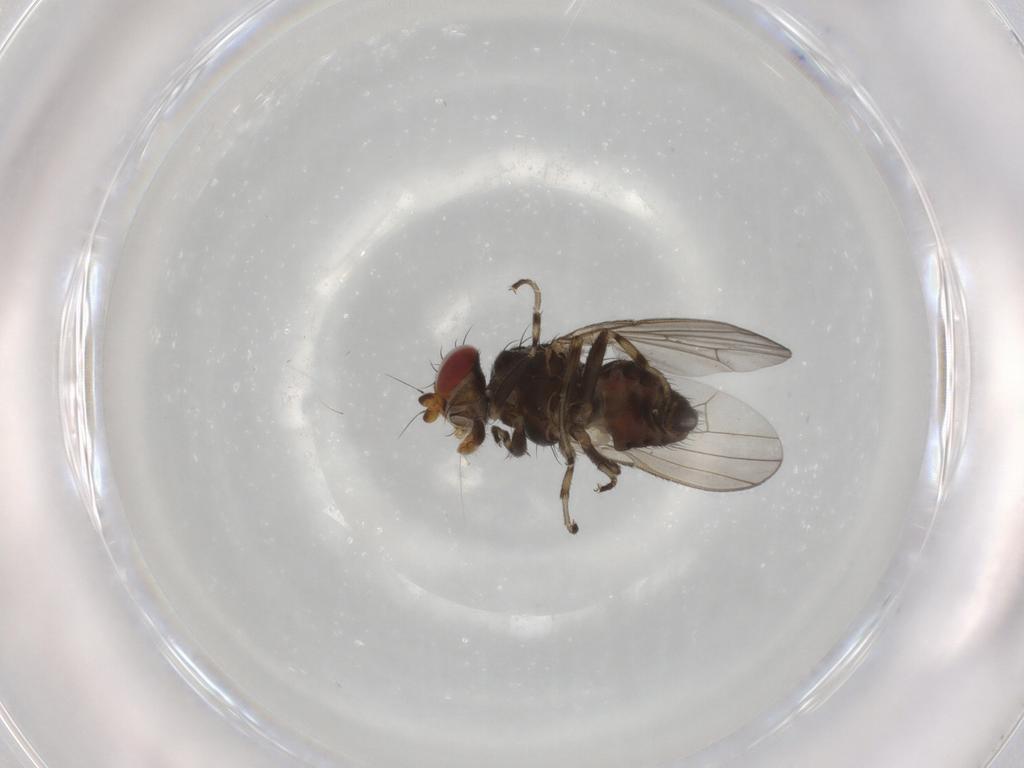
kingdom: Animalia
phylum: Arthropoda
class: Insecta
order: Diptera
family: Heleomyzidae
